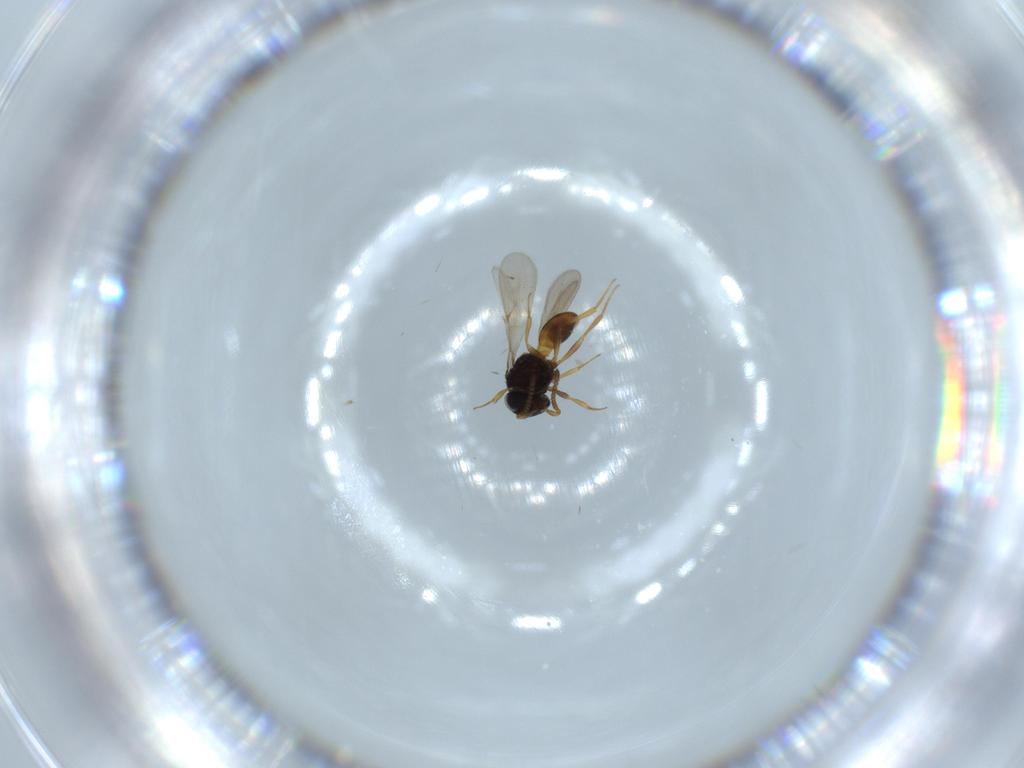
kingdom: Animalia
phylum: Arthropoda
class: Insecta
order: Hymenoptera
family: Scelionidae
